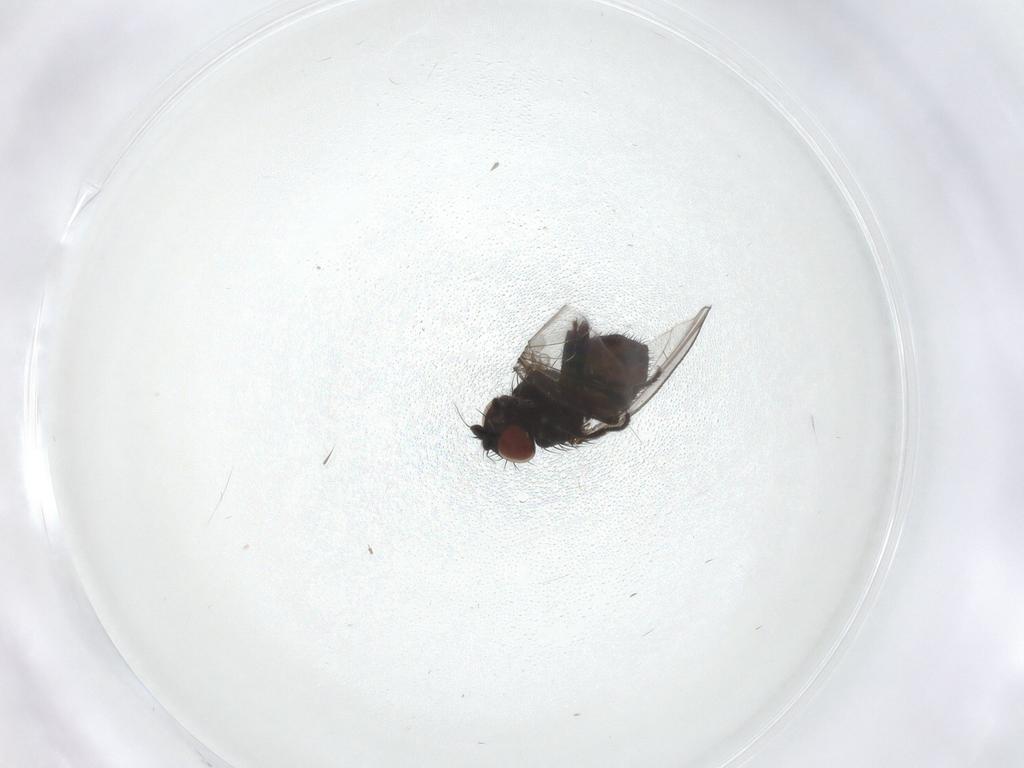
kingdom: Animalia
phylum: Arthropoda
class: Insecta
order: Diptera
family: Milichiidae
